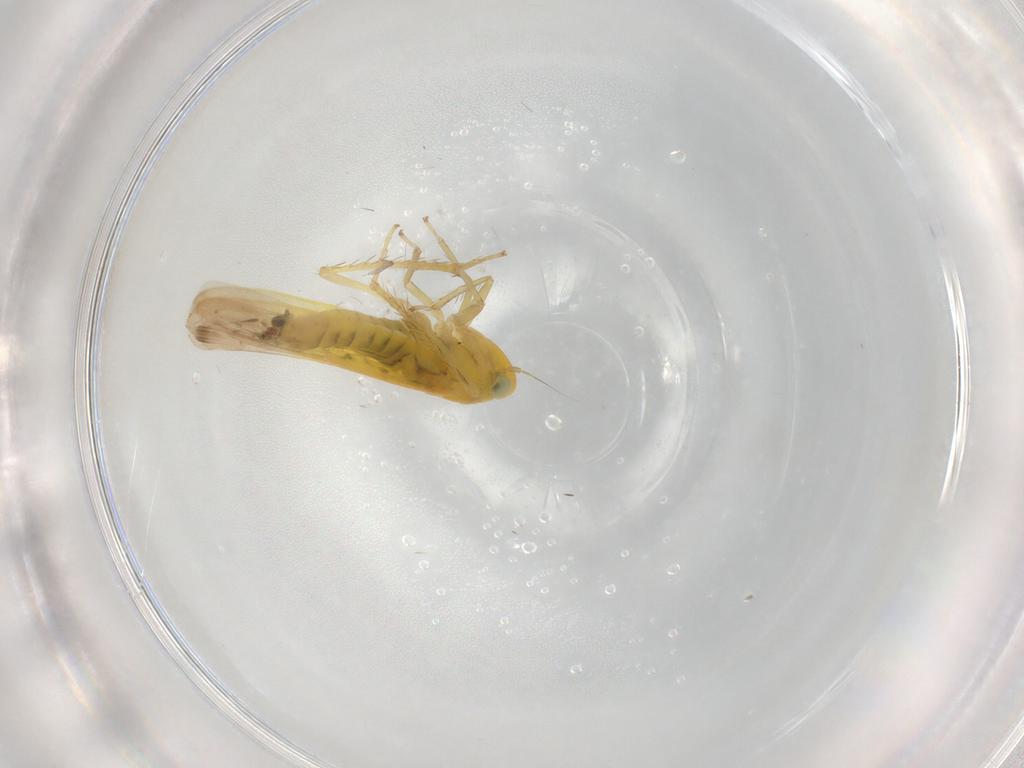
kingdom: Animalia
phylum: Arthropoda
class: Insecta
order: Hemiptera
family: Cicadellidae
